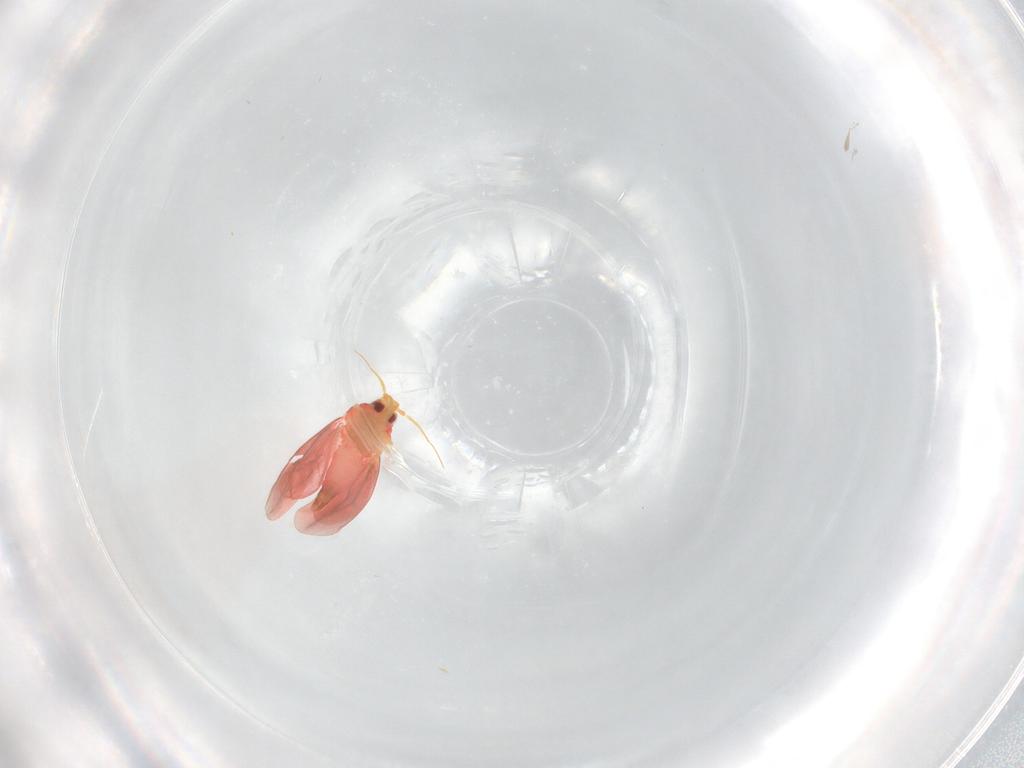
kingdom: Animalia
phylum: Arthropoda
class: Insecta
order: Hemiptera
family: Aleyrodidae
